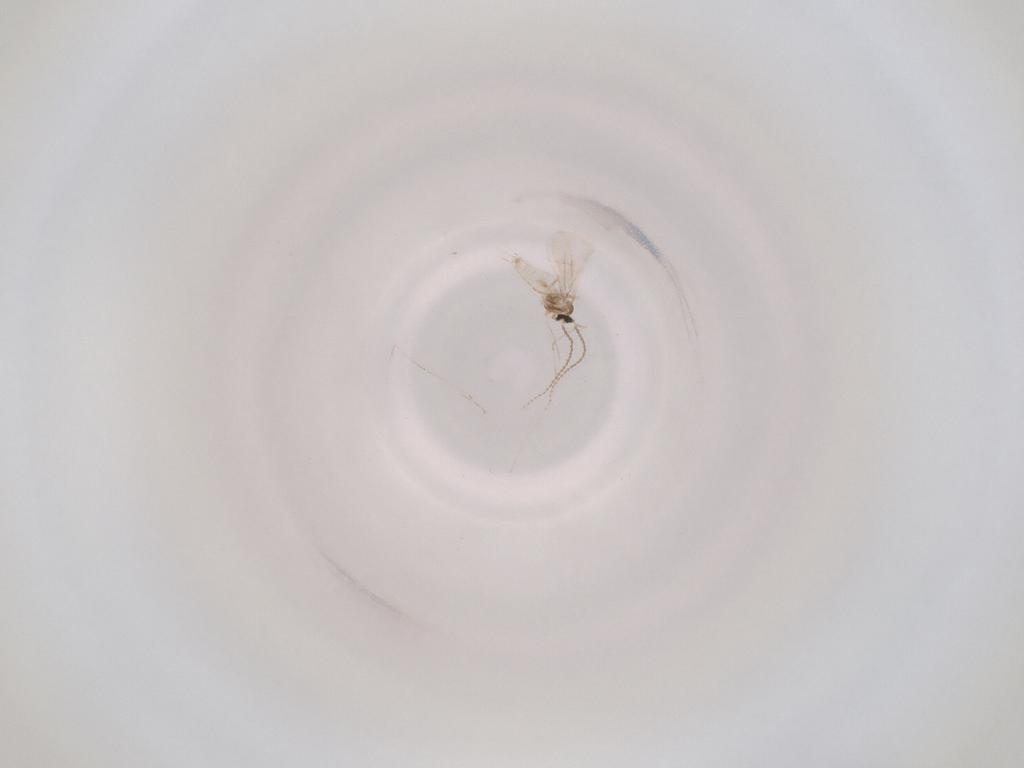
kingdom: Animalia
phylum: Arthropoda
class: Insecta
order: Diptera
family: Cecidomyiidae
